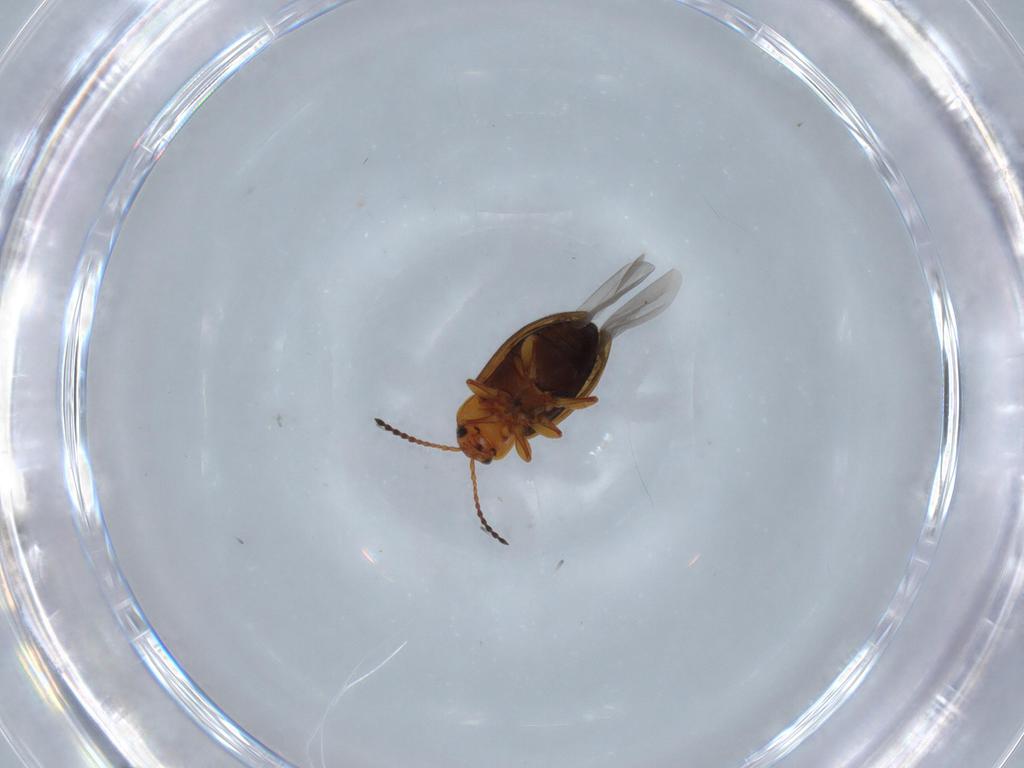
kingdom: Animalia
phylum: Arthropoda
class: Insecta
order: Coleoptera
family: Chrysomelidae
